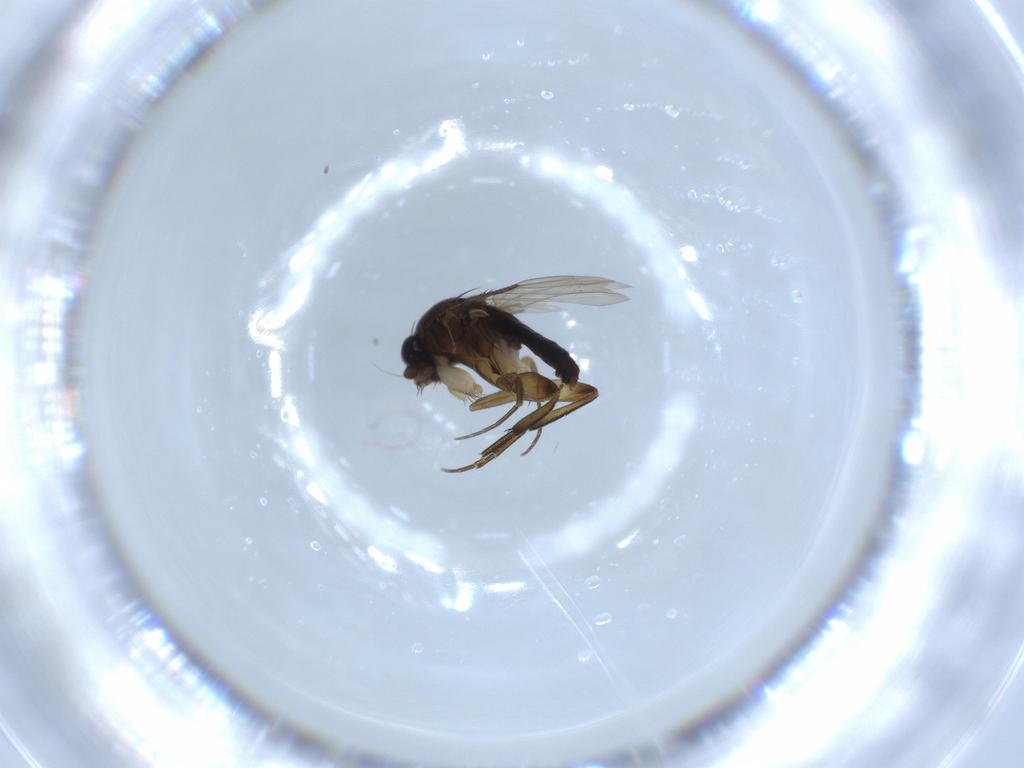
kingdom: Animalia
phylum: Arthropoda
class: Insecta
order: Diptera
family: Phoridae
